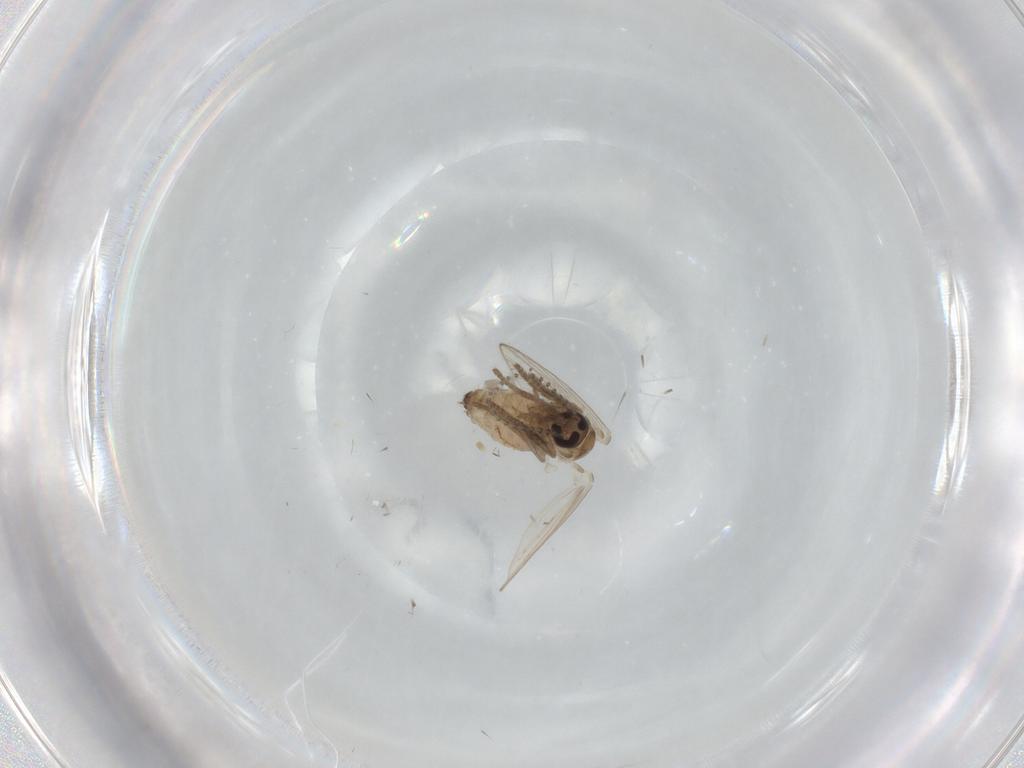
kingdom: Animalia
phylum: Arthropoda
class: Insecta
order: Diptera
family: Psychodidae
